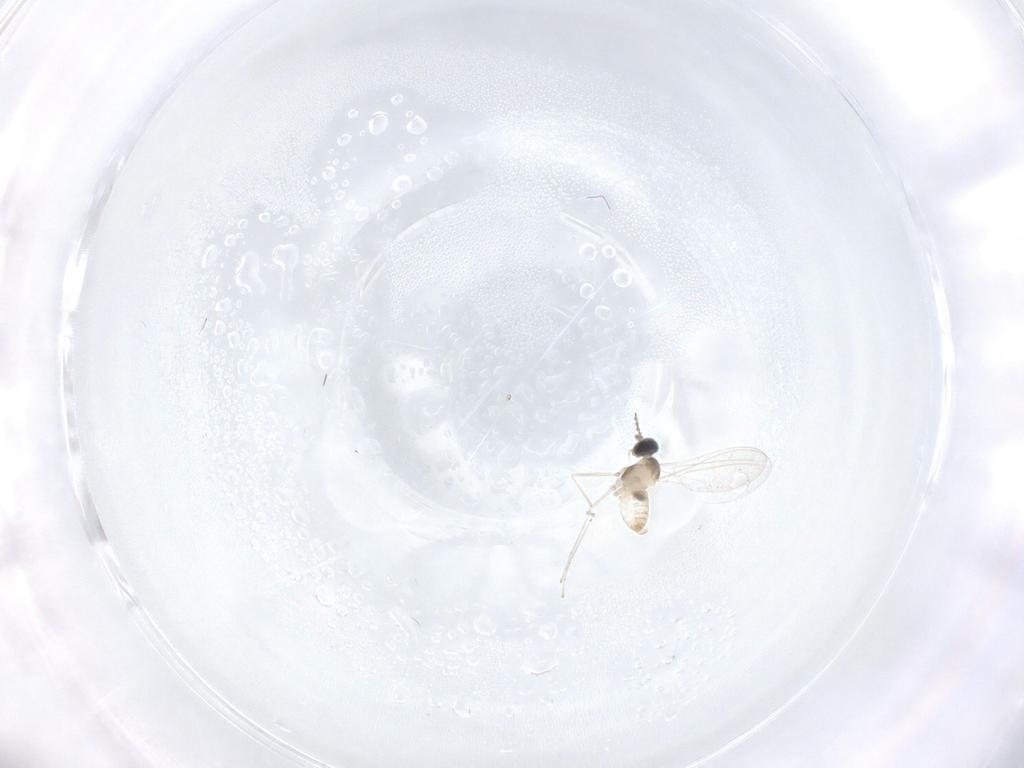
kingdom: Animalia
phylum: Arthropoda
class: Insecta
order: Diptera
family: Cecidomyiidae
